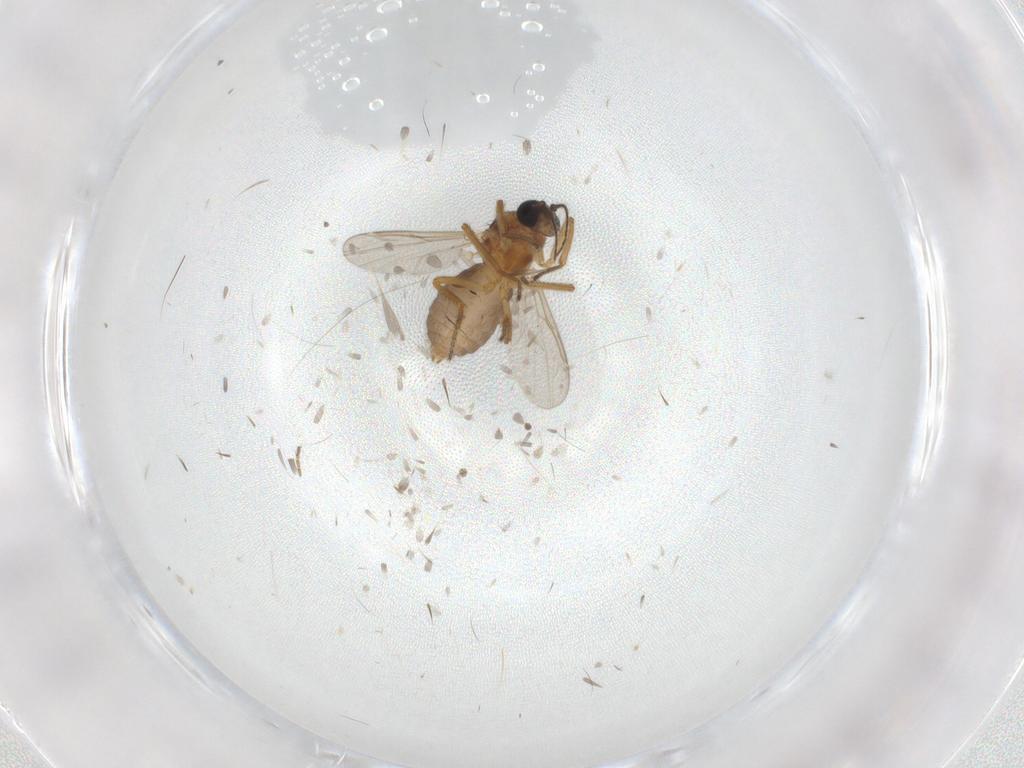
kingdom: Animalia
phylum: Arthropoda
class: Insecta
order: Diptera
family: Ceratopogonidae
